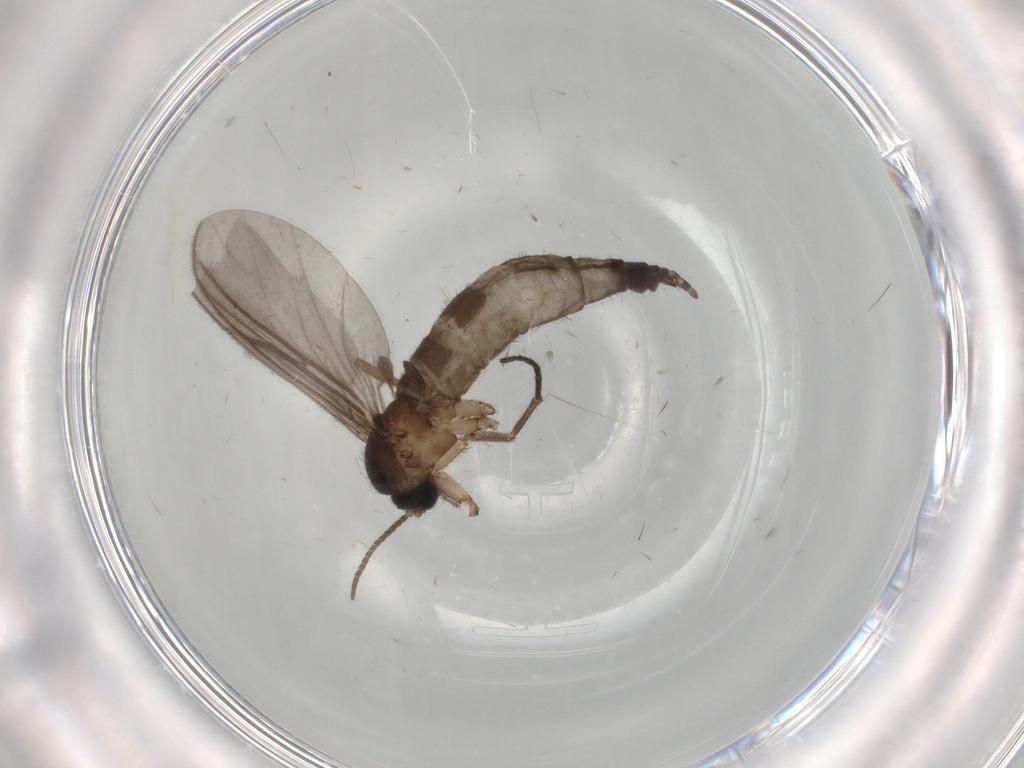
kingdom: Animalia
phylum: Arthropoda
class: Insecta
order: Diptera
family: Sciaridae
